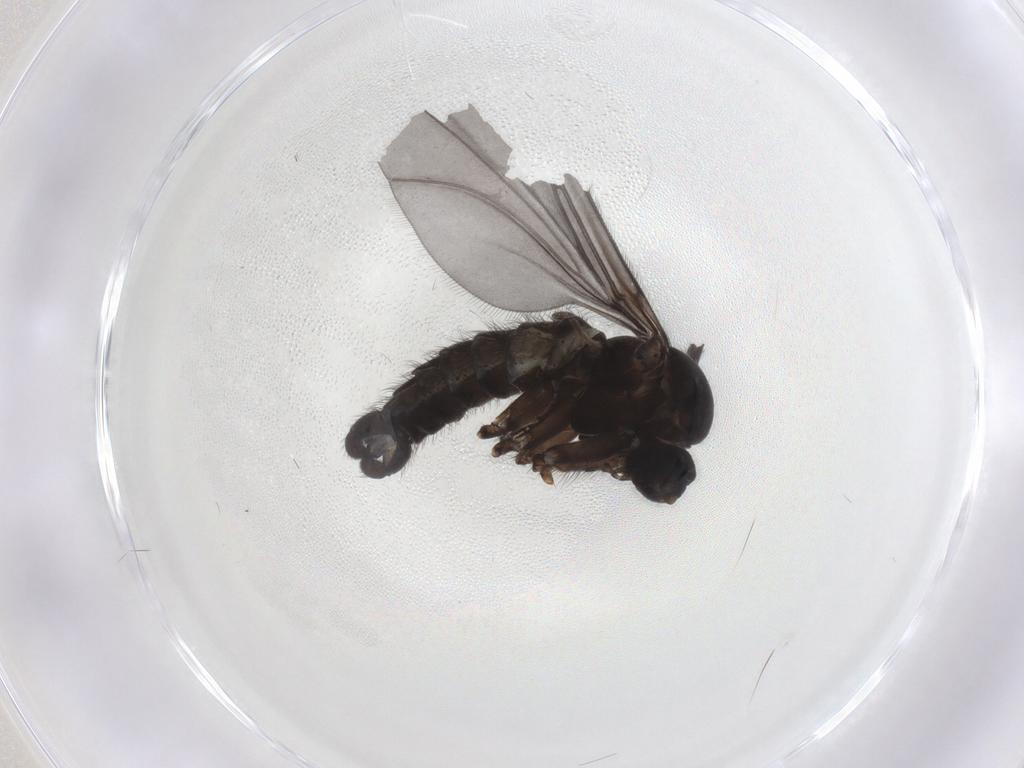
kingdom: Animalia
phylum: Arthropoda
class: Insecta
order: Diptera
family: Sciaridae
